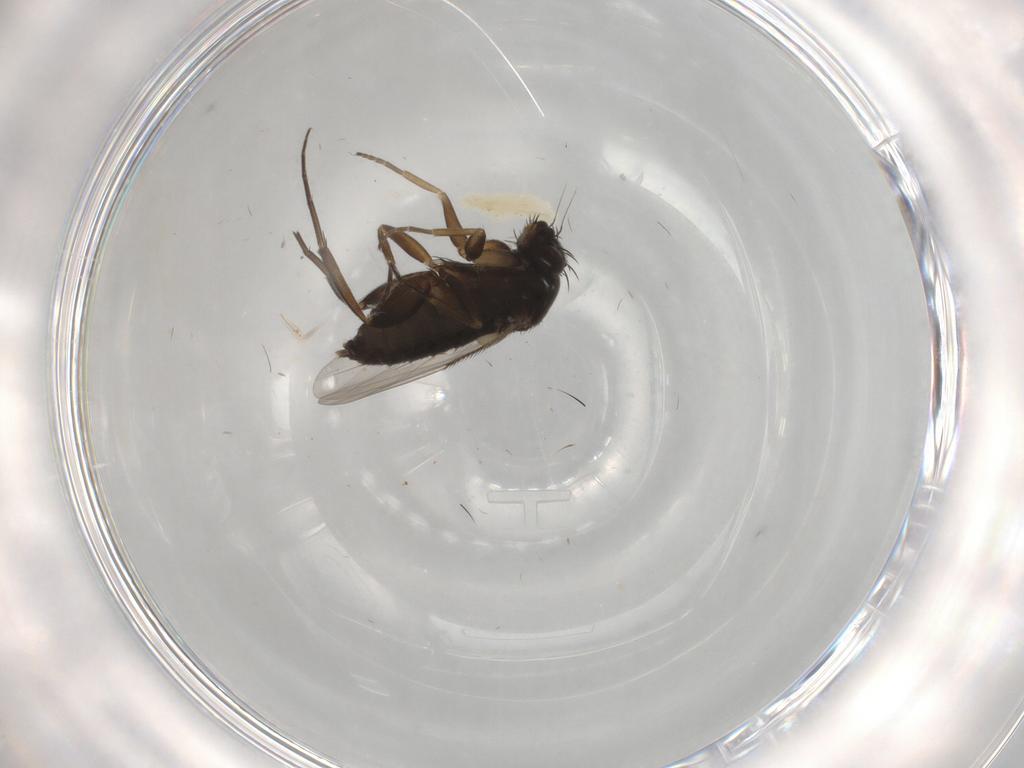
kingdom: Animalia
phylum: Arthropoda
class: Insecta
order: Diptera
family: Phoridae
